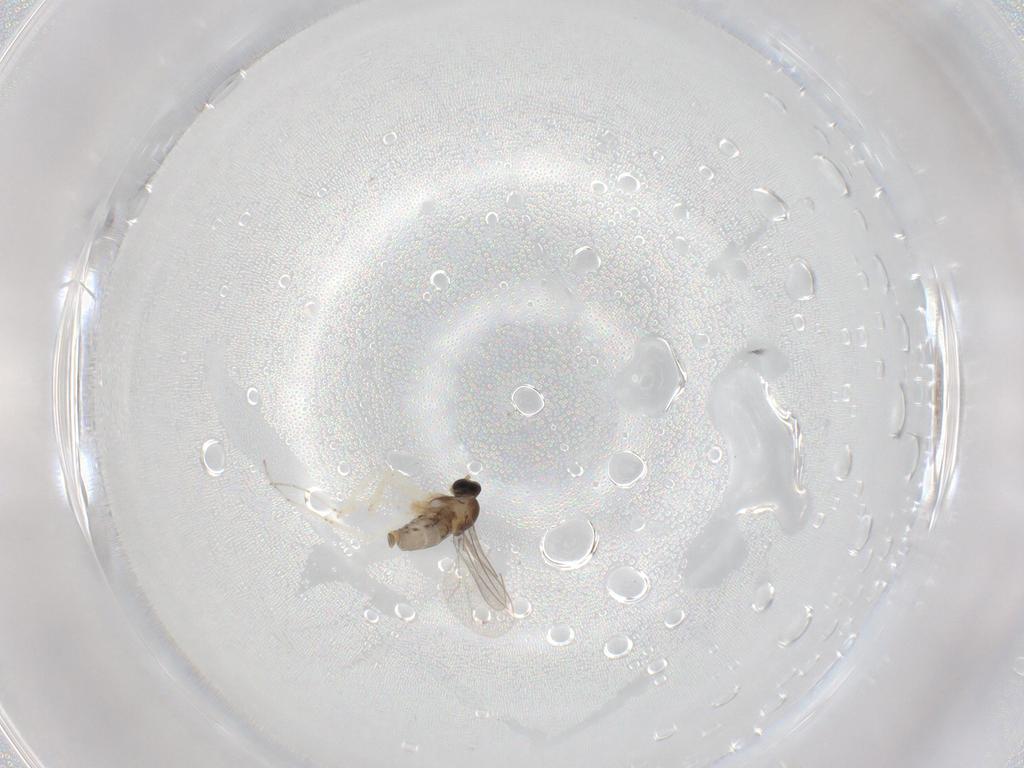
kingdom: Animalia
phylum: Arthropoda
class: Insecta
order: Diptera
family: Cecidomyiidae
